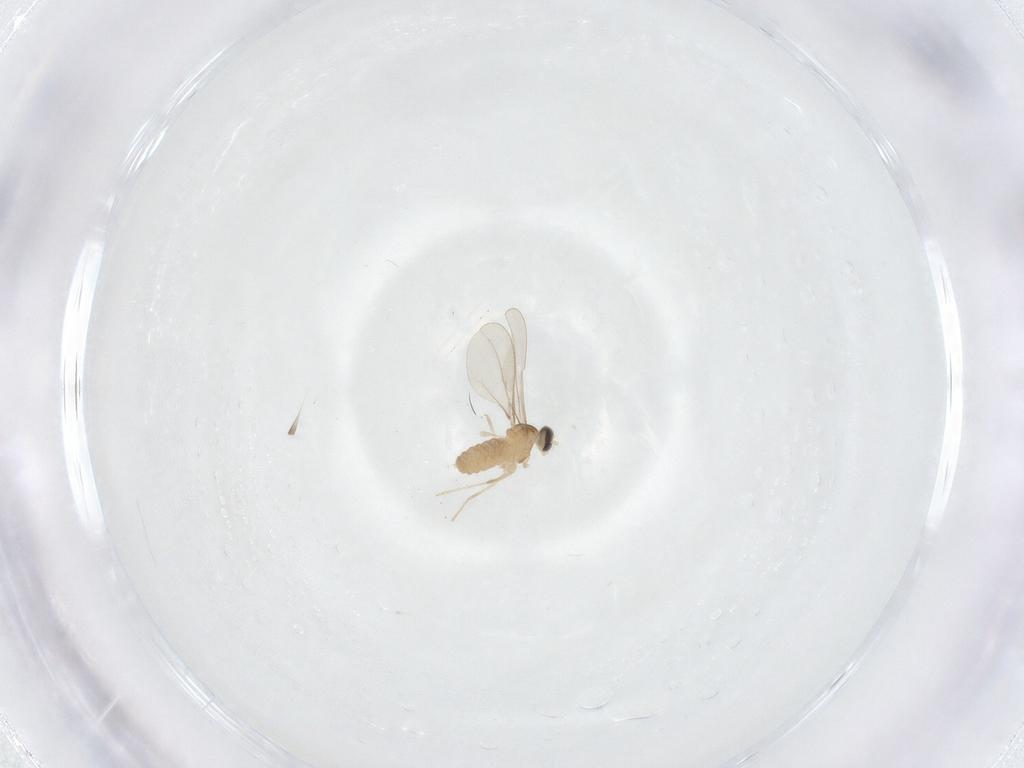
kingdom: Animalia
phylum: Arthropoda
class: Insecta
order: Diptera
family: Cecidomyiidae
